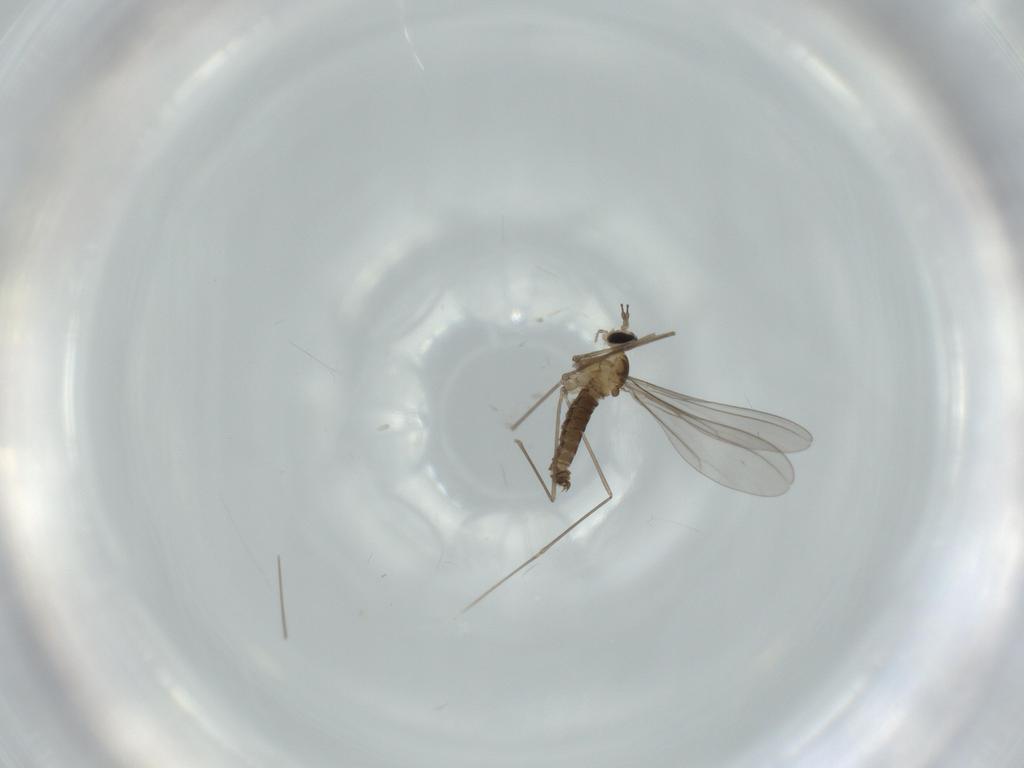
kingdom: Animalia
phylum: Arthropoda
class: Insecta
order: Diptera
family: Cecidomyiidae
